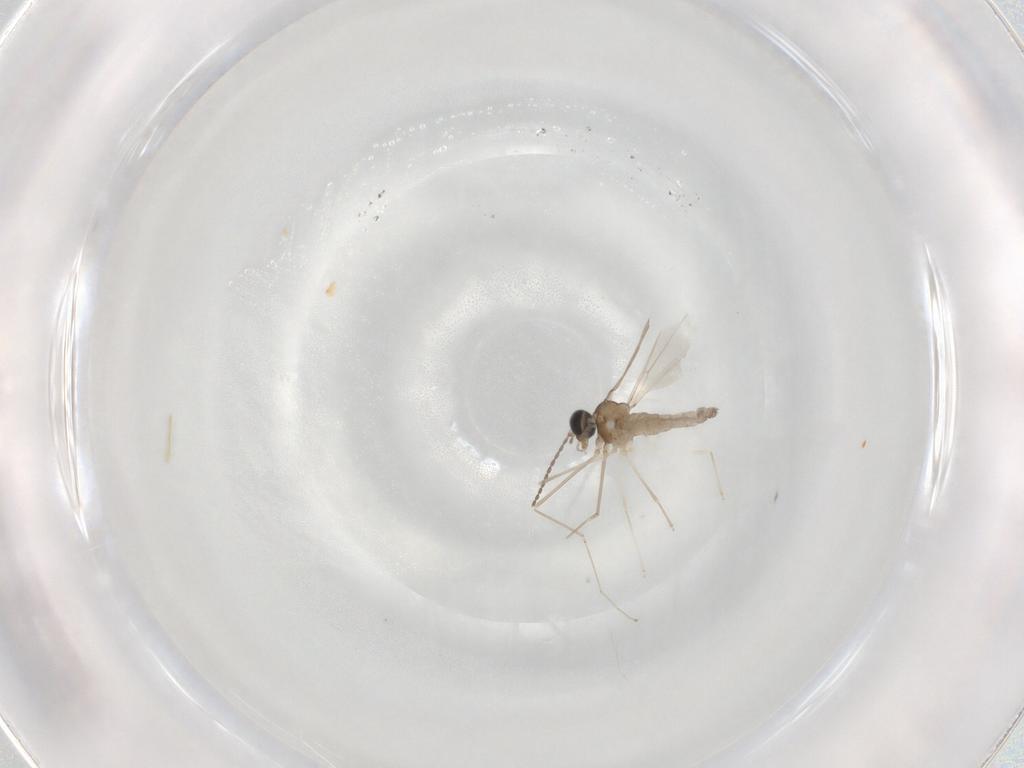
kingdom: Animalia
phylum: Arthropoda
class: Insecta
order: Diptera
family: Cecidomyiidae
